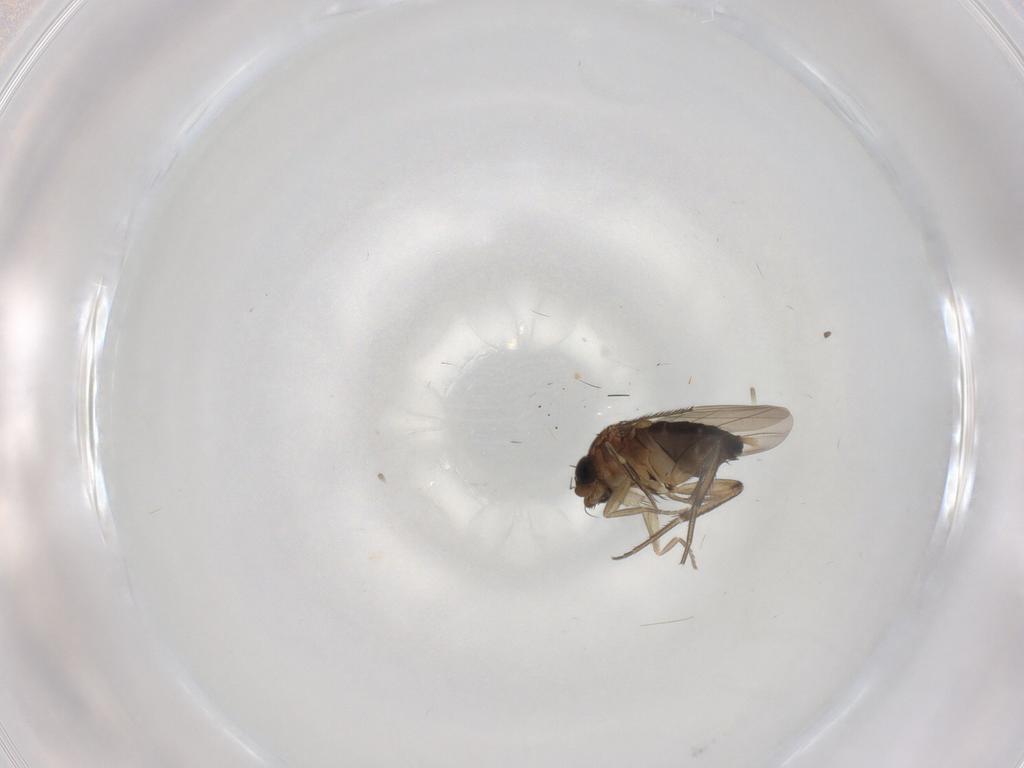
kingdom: Animalia
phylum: Arthropoda
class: Insecta
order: Diptera
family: Phoridae
